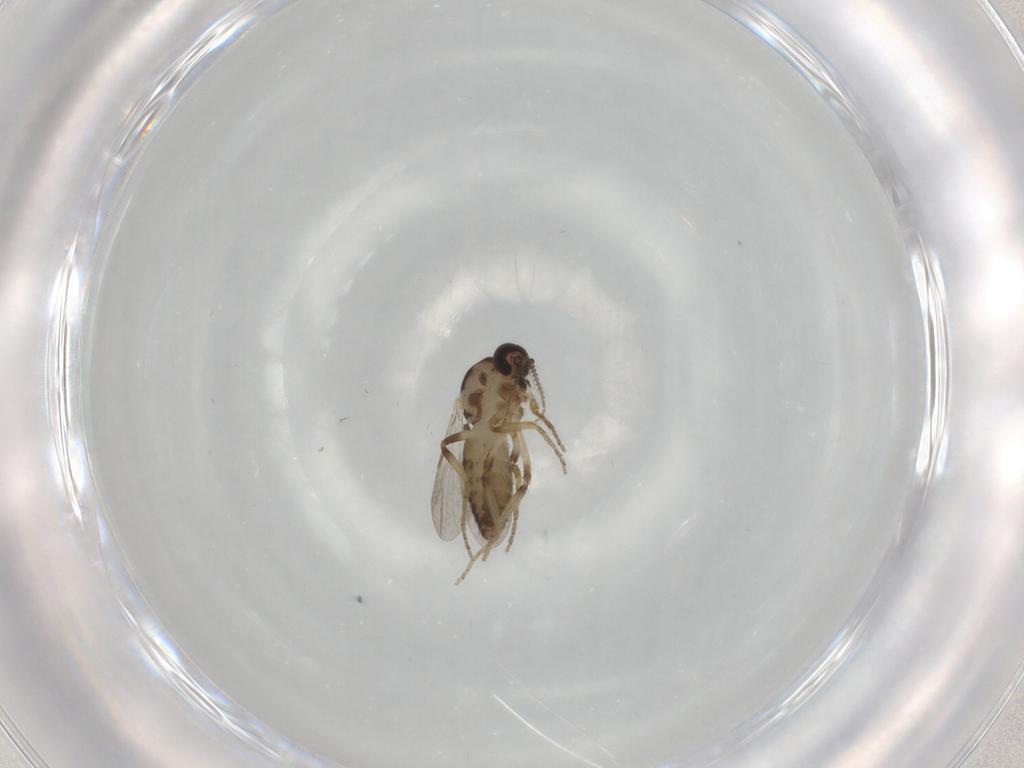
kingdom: Animalia
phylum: Arthropoda
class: Insecta
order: Diptera
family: Ceratopogonidae
